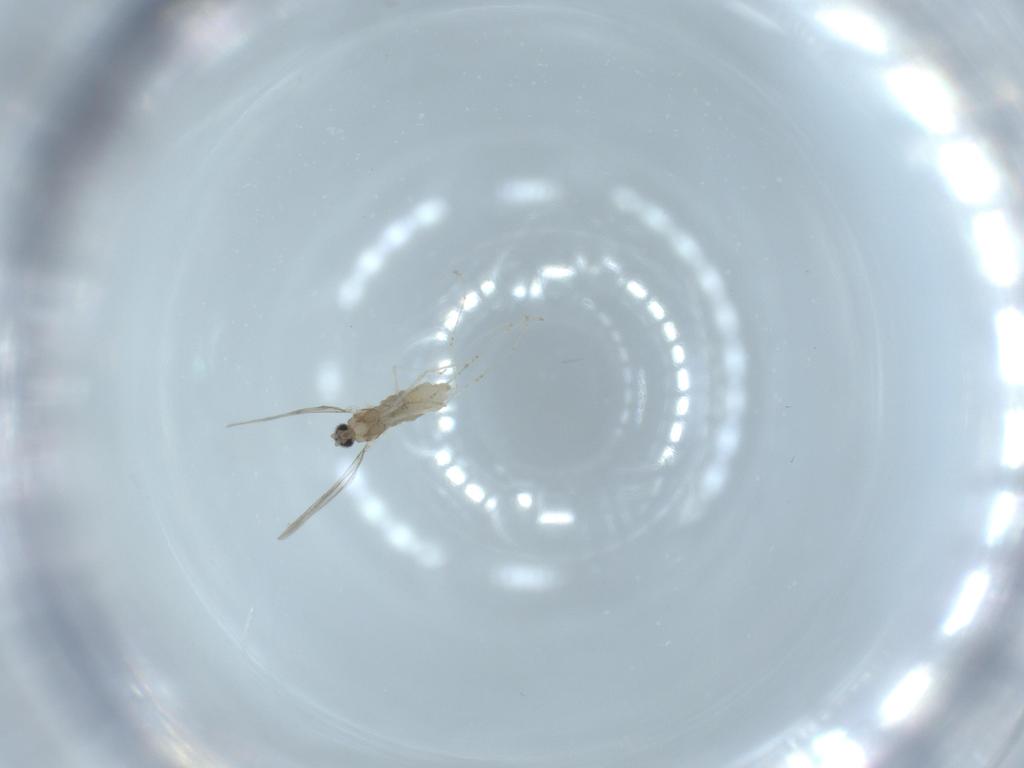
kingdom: Animalia
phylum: Arthropoda
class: Insecta
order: Diptera
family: Cecidomyiidae
